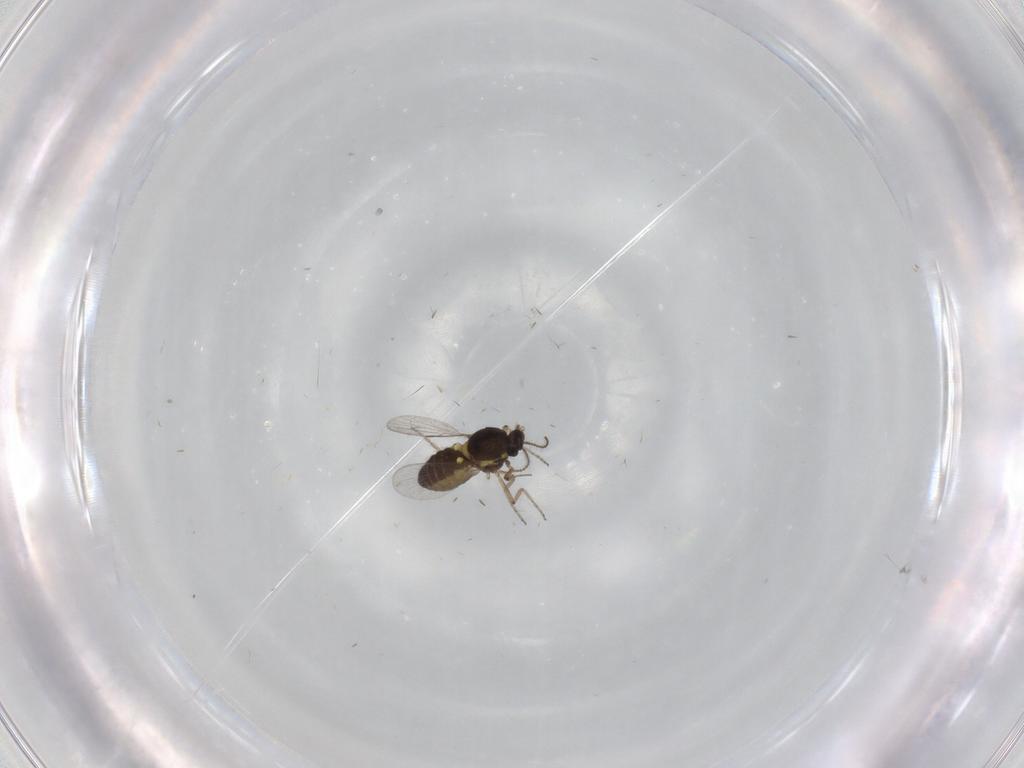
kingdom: Animalia
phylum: Arthropoda
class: Insecta
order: Diptera
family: Ceratopogonidae
